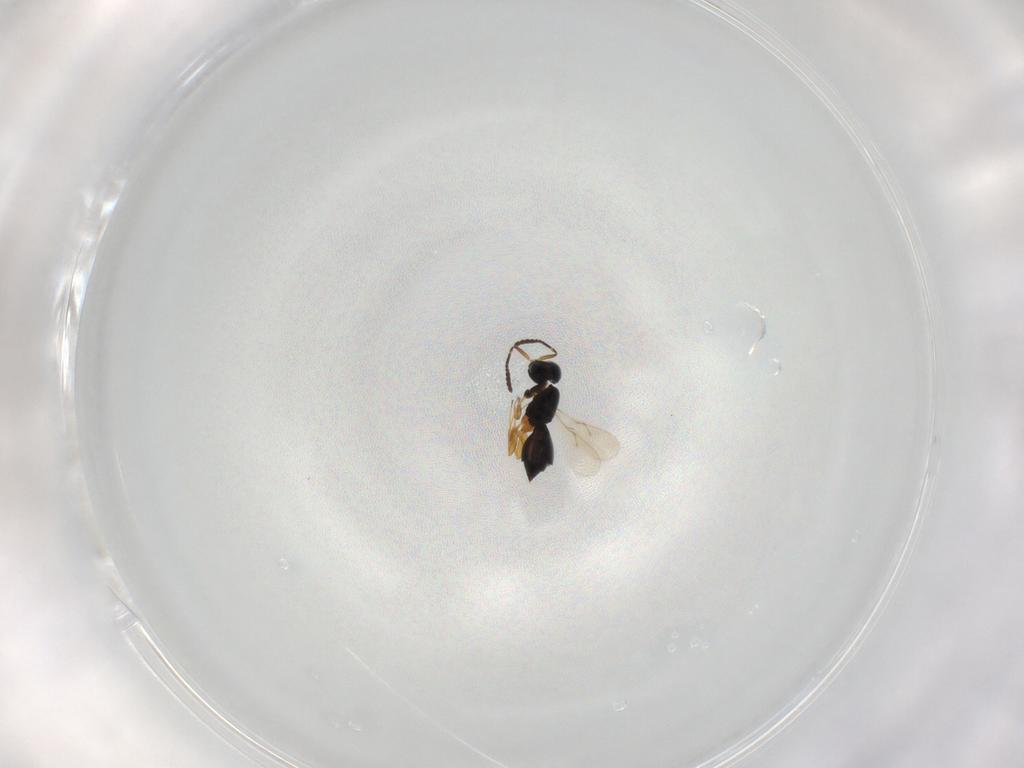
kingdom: Animalia
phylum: Arthropoda
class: Insecta
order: Hymenoptera
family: Scelionidae
